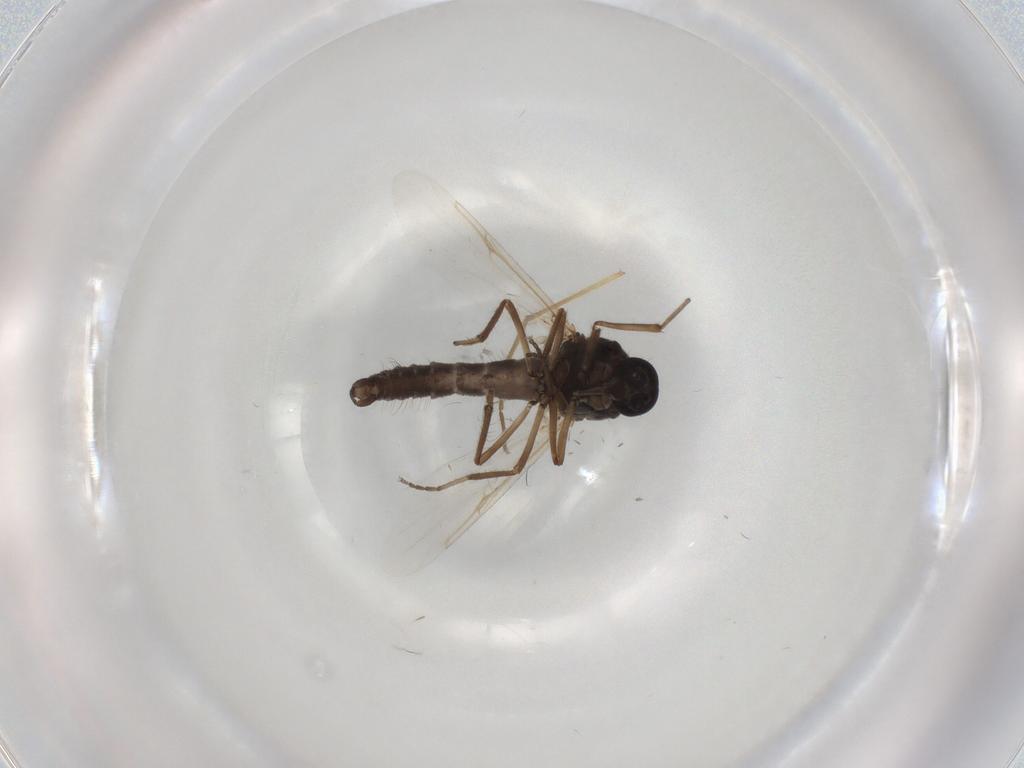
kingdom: Animalia
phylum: Arthropoda
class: Insecta
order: Diptera
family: Ceratopogonidae
